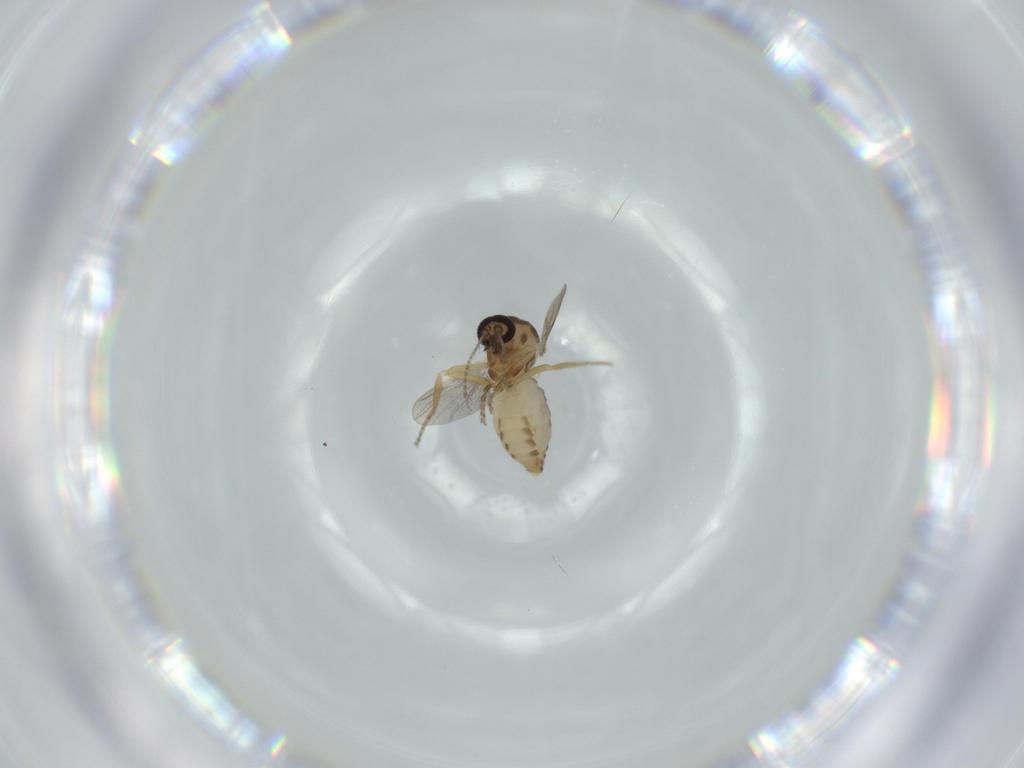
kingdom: Animalia
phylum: Arthropoda
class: Insecta
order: Diptera
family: Ceratopogonidae
